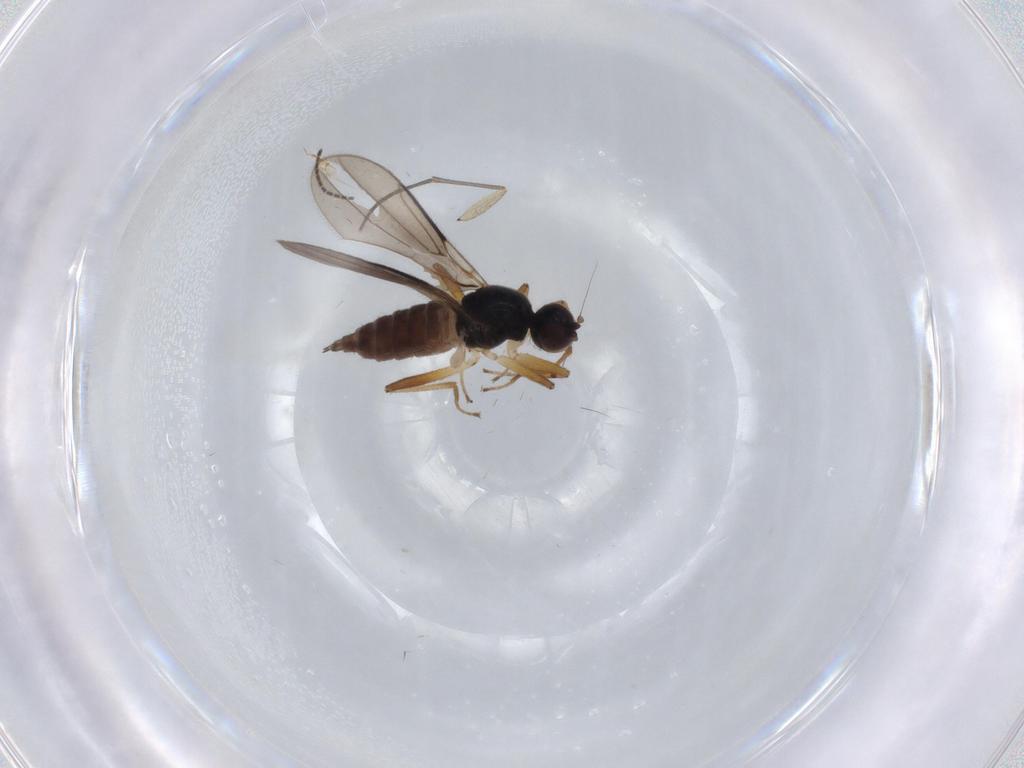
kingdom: Animalia
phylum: Arthropoda
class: Insecta
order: Diptera
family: Hybotidae
